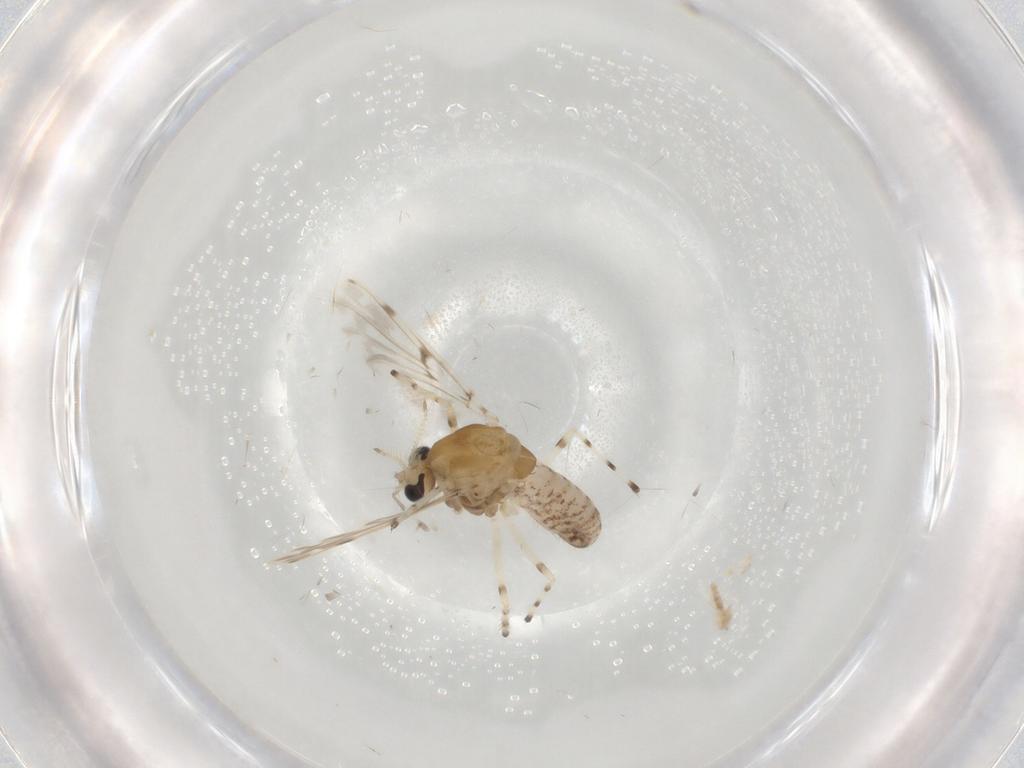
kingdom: Animalia
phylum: Arthropoda
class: Insecta
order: Diptera
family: Chironomidae
